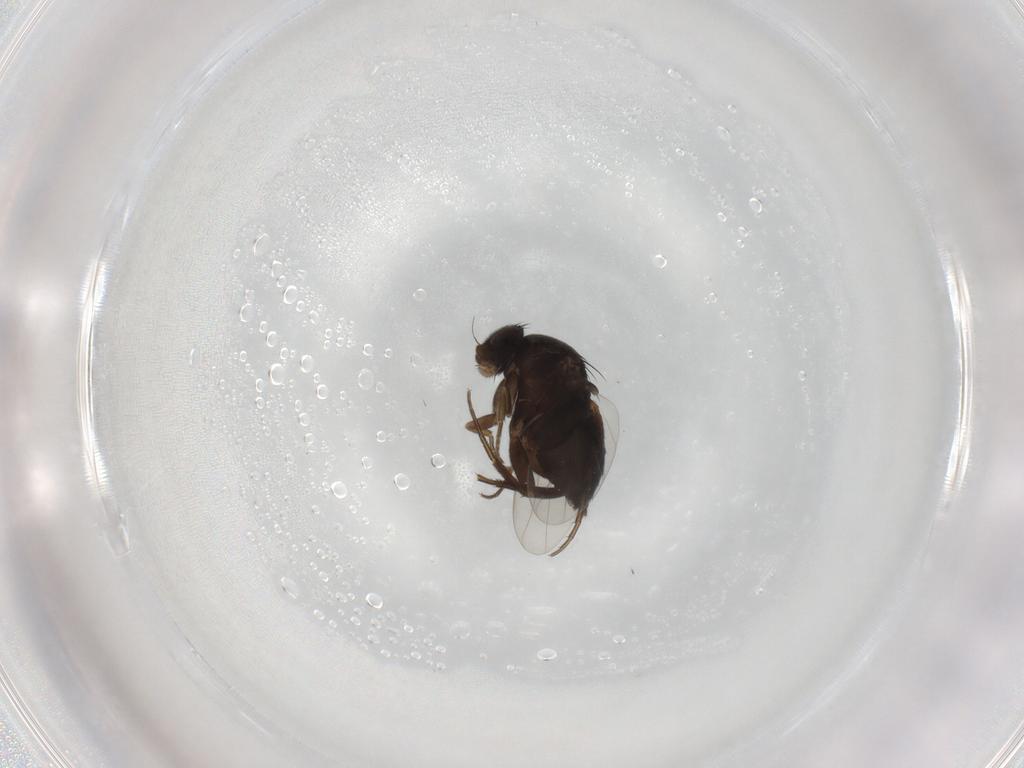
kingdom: Animalia
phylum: Arthropoda
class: Insecta
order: Diptera
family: Phoridae
